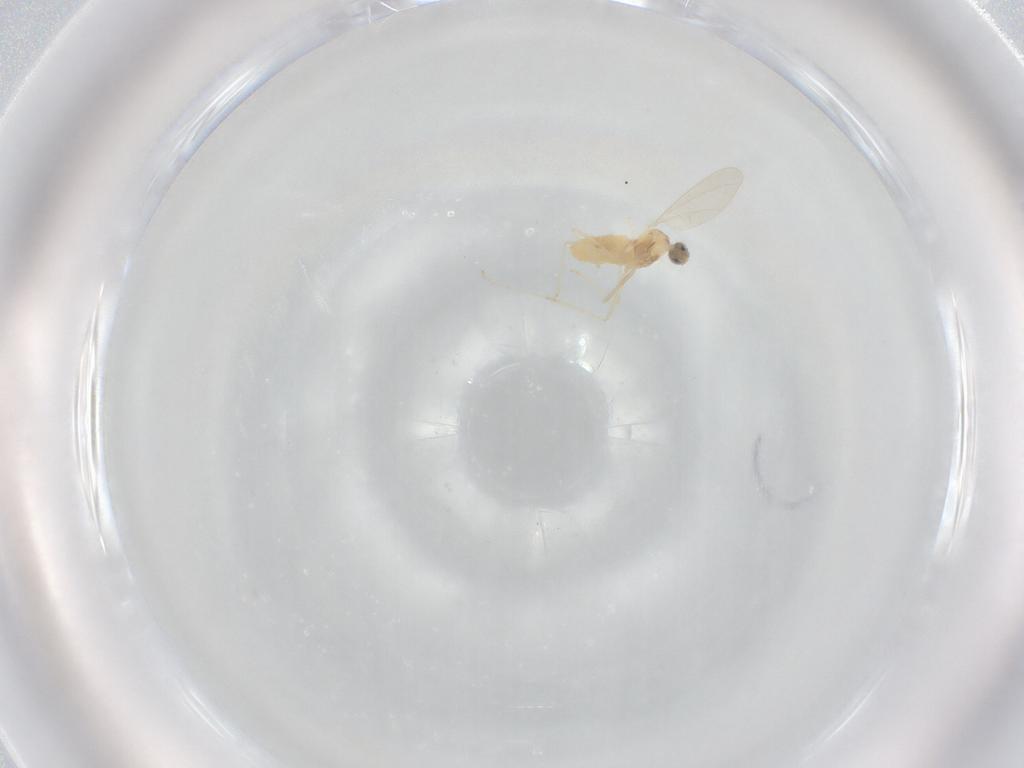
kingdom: Animalia
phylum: Arthropoda
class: Insecta
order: Diptera
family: Cecidomyiidae
